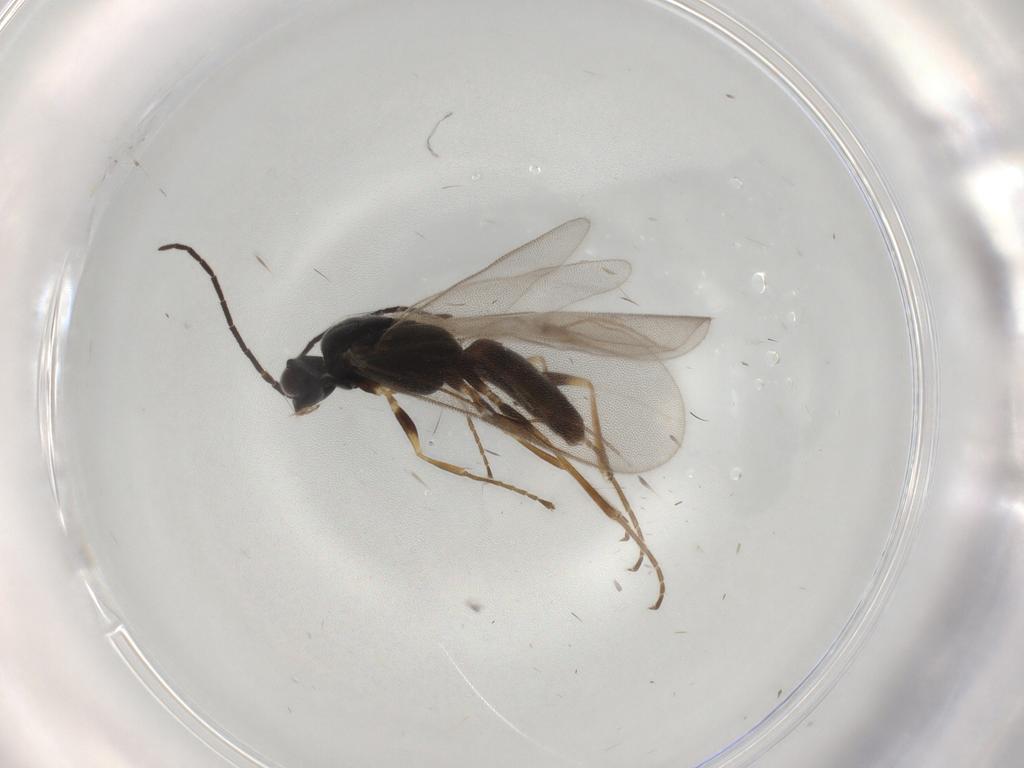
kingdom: Animalia
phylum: Arthropoda
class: Insecta
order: Hymenoptera
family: Dryinidae
